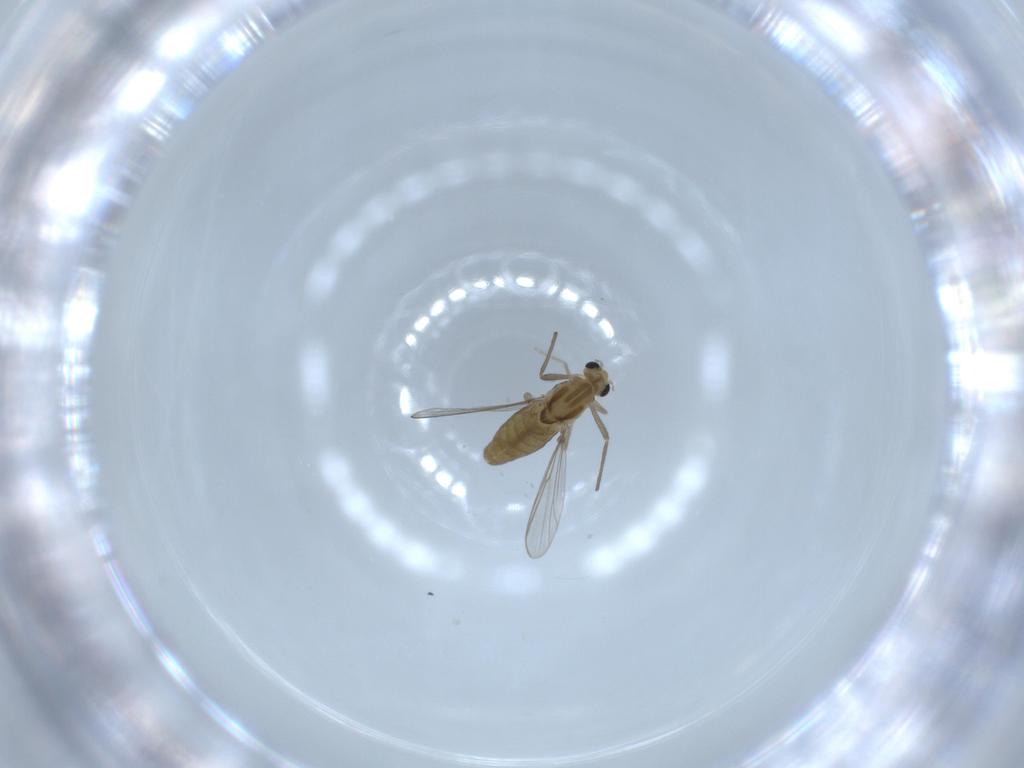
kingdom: Animalia
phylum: Arthropoda
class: Insecta
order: Diptera
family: Chironomidae
